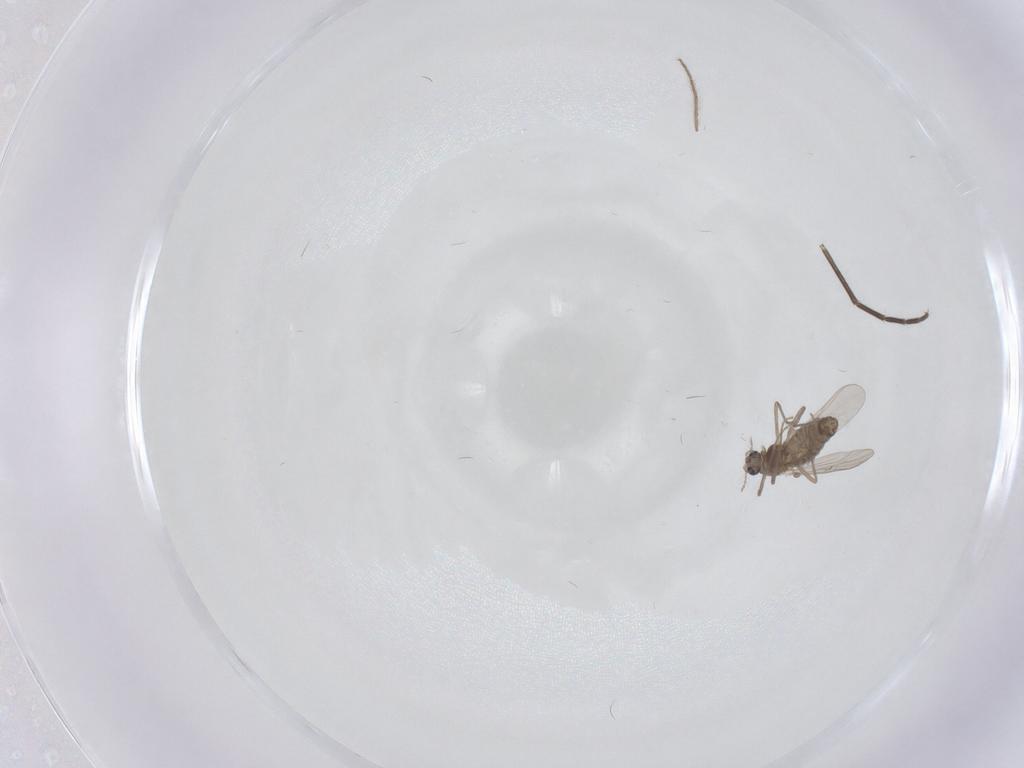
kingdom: Animalia
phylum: Arthropoda
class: Insecta
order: Diptera
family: Chironomidae
